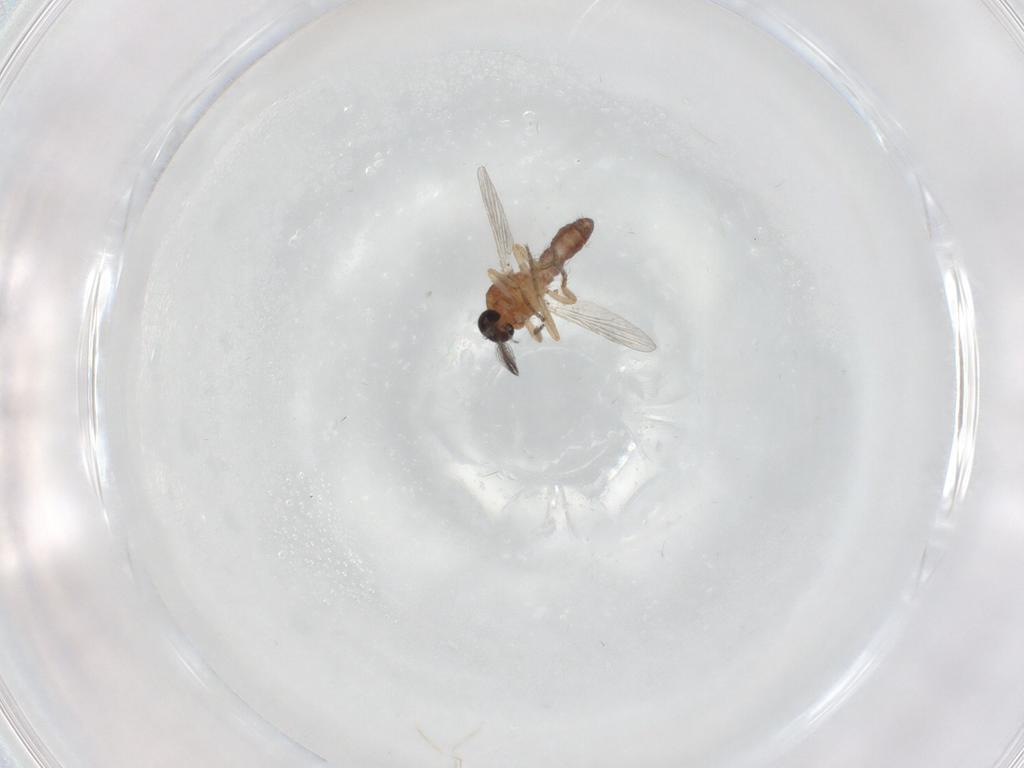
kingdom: Animalia
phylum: Arthropoda
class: Insecta
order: Diptera
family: Ceratopogonidae
